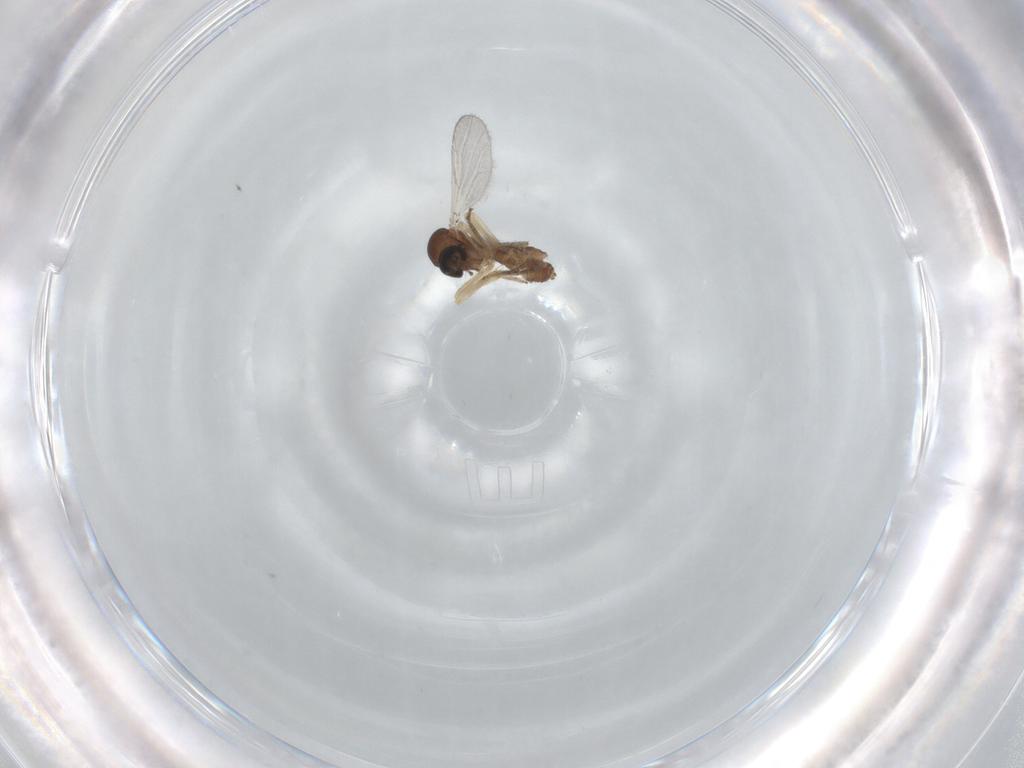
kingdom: Animalia
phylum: Arthropoda
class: Insecta
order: Diptera
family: Ceratopogonidae
